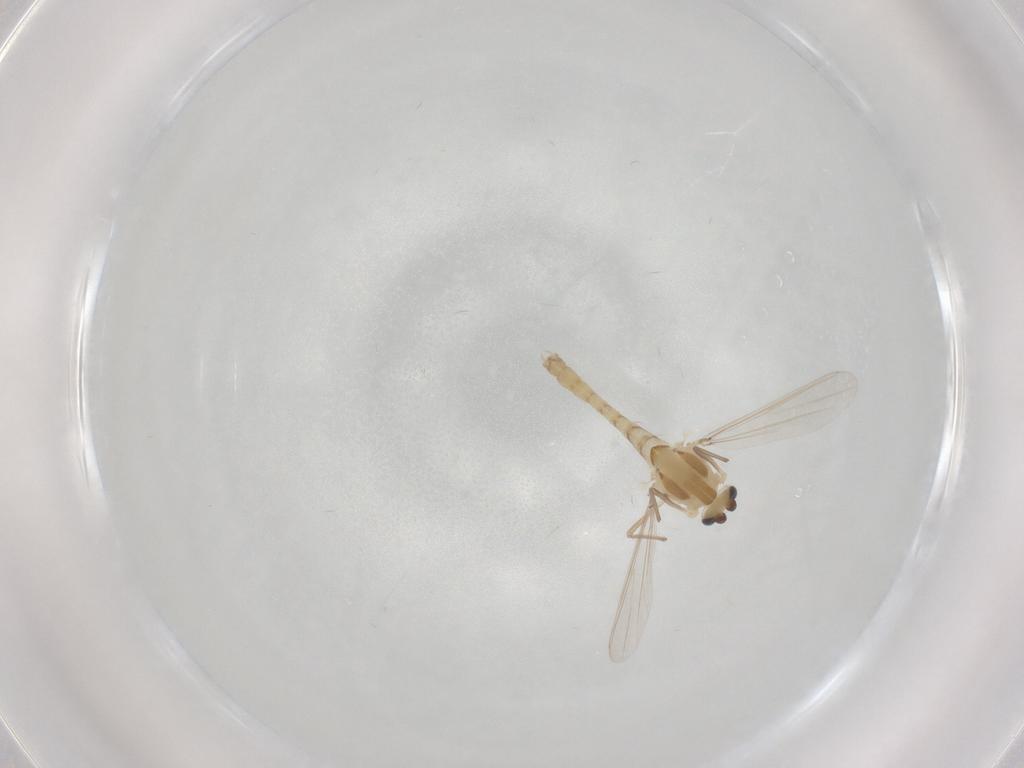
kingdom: Animalia
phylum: Arthropoda
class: Insecta
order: Diptera
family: Chironomidae
